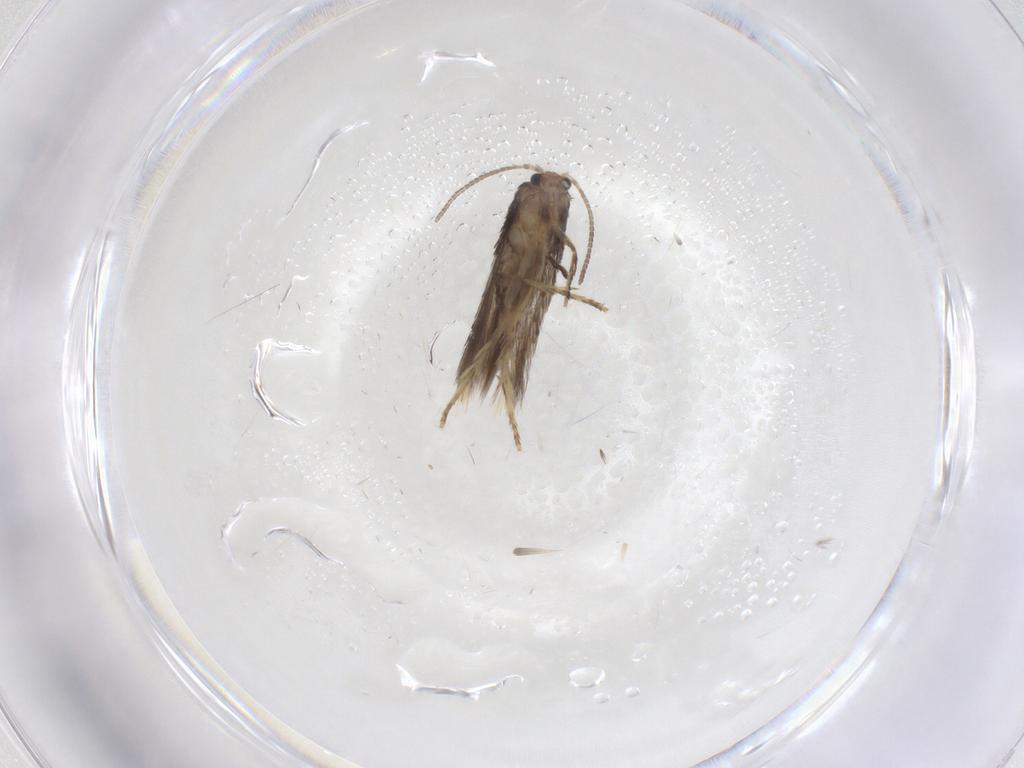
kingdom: Animalia
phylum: Arthropoda
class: Insecta
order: Lepidoptera
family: Nepticulidae
